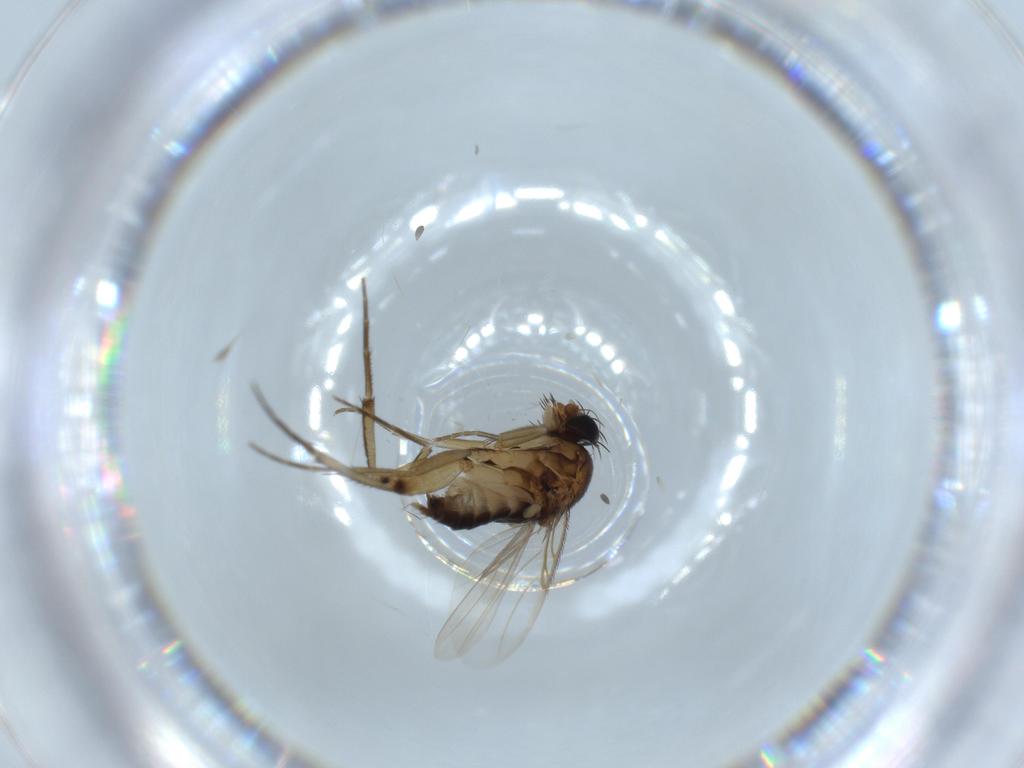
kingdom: Animalia
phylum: Arthropoda
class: Insecta
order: Diptera
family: Phoridae
